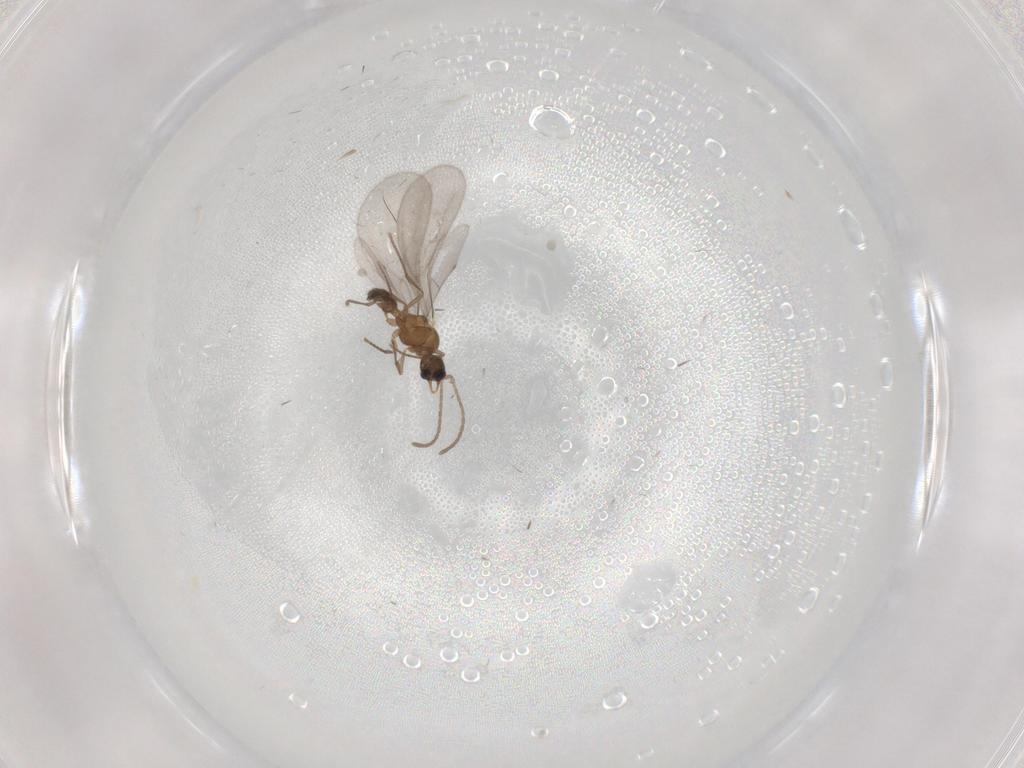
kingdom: Animalia
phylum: Arthropoda
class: Insecta
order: Hymenoptera
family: Formicidae
